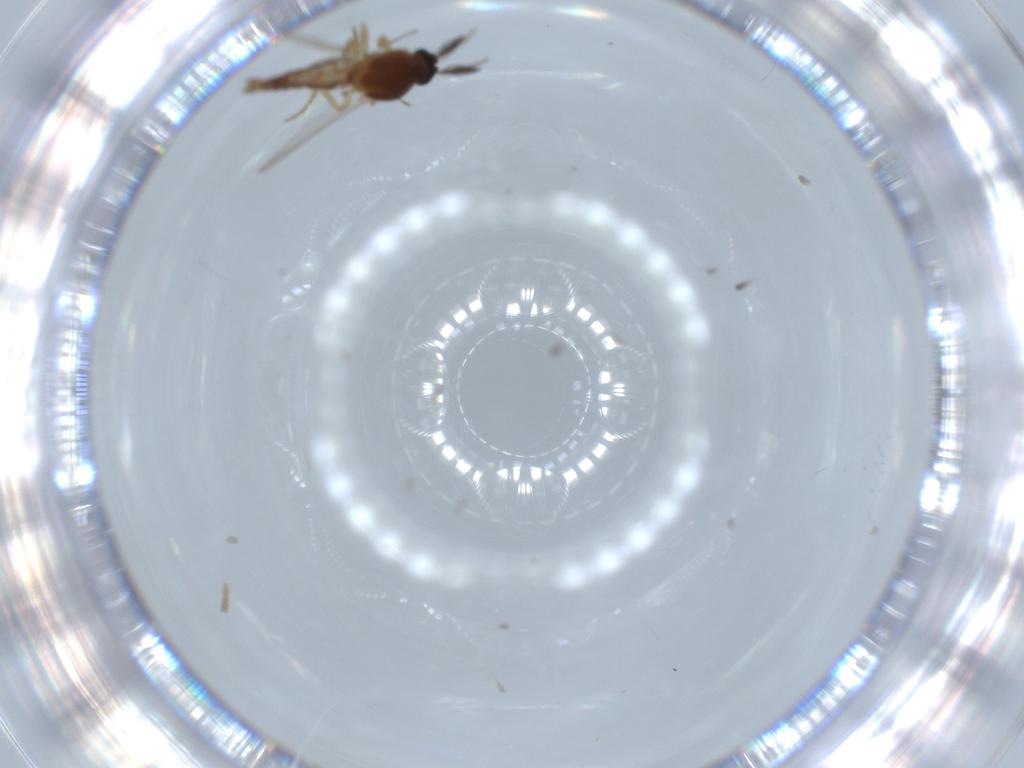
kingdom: Animalia
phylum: Arthropoda
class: Insecta
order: Diptera
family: Ceratopogonidae
